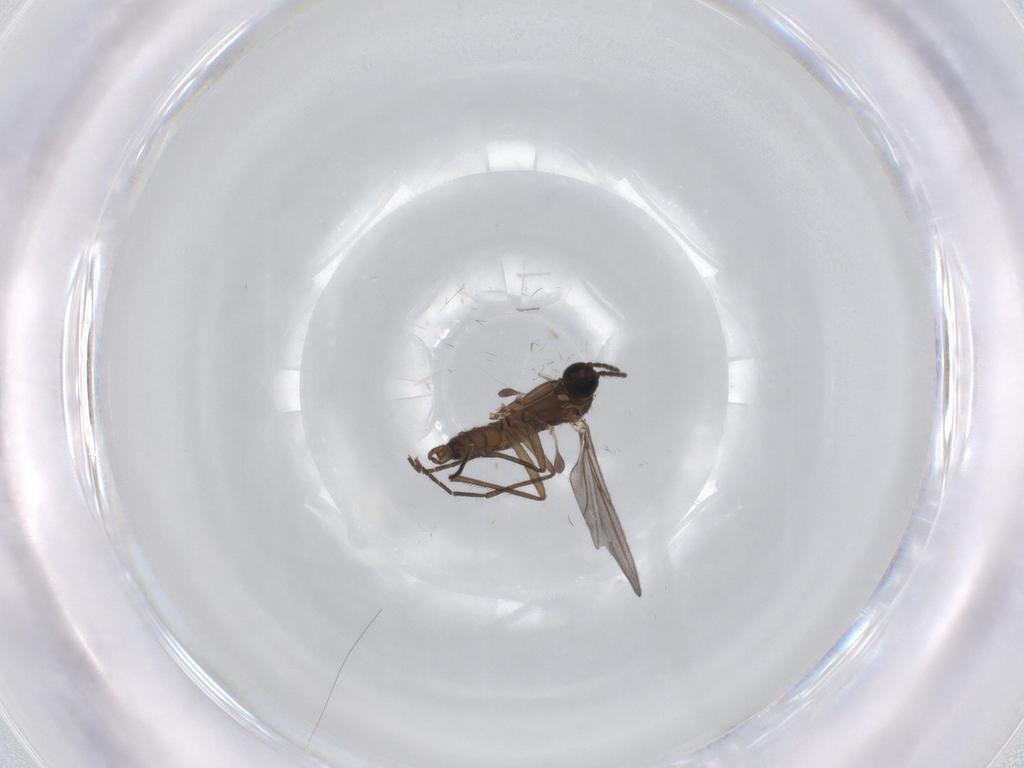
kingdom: Animalia
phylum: Arthropoda
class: Insecta
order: Diptera
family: Sciaridae
